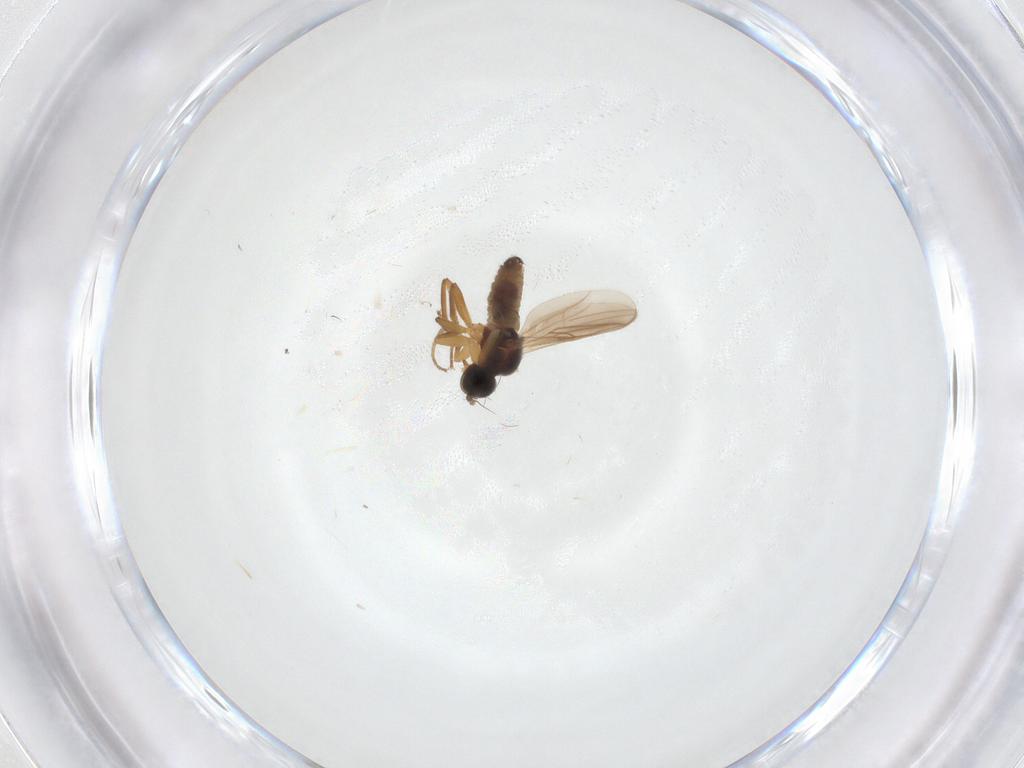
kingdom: Animalia
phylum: Arthropoda
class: Insecta
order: Diptera
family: Hybotidae
